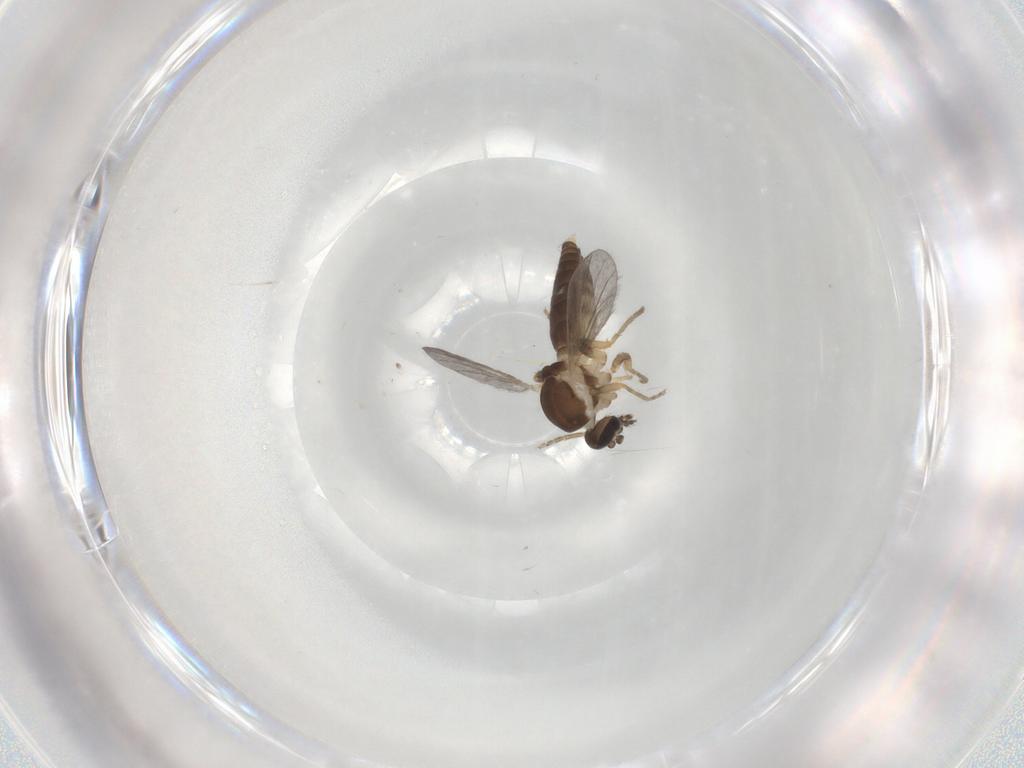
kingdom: Animalia
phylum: Arthropoda
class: Insecta
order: Diptera
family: Ceratopogonidae
